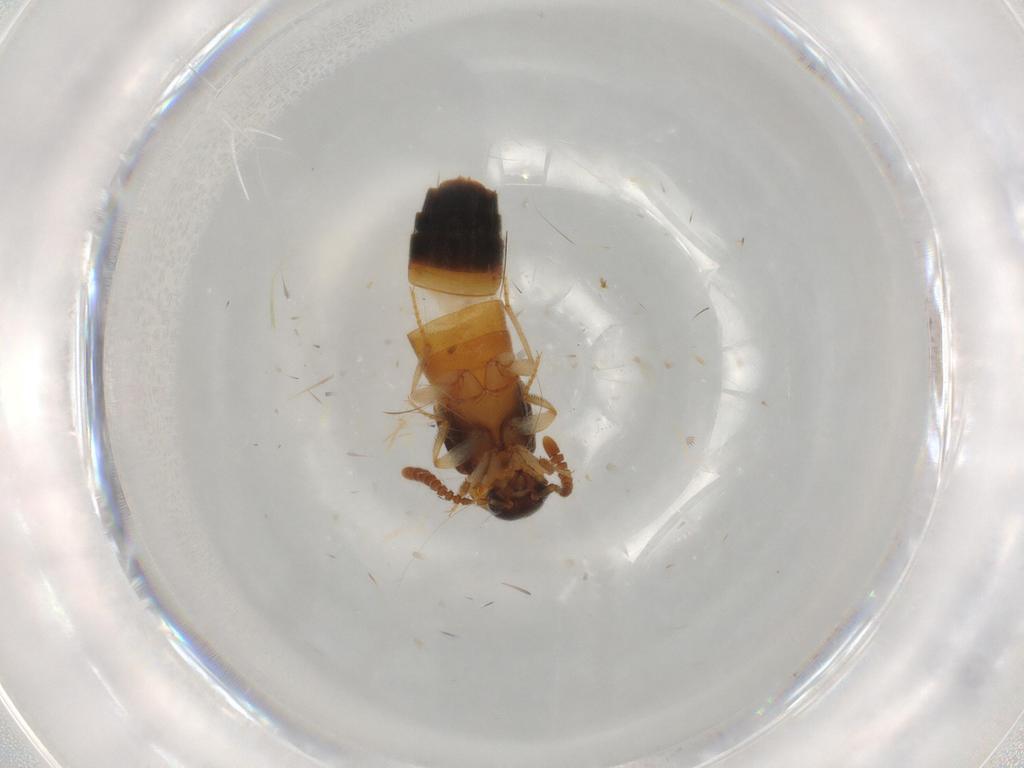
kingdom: Animalia
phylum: Arthropoda
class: Insecta
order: Coleoptera
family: Staphylinidae
